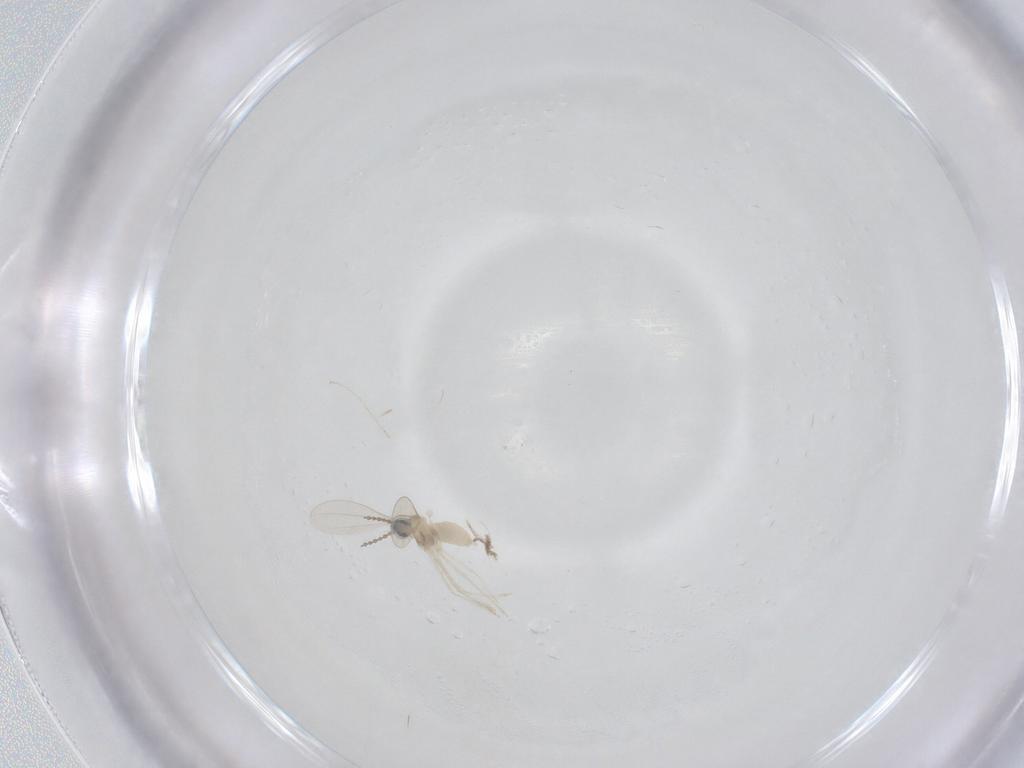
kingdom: Animalia
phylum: Arthropoda
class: Insecta
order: Diptera
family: Cecidomyiidae
